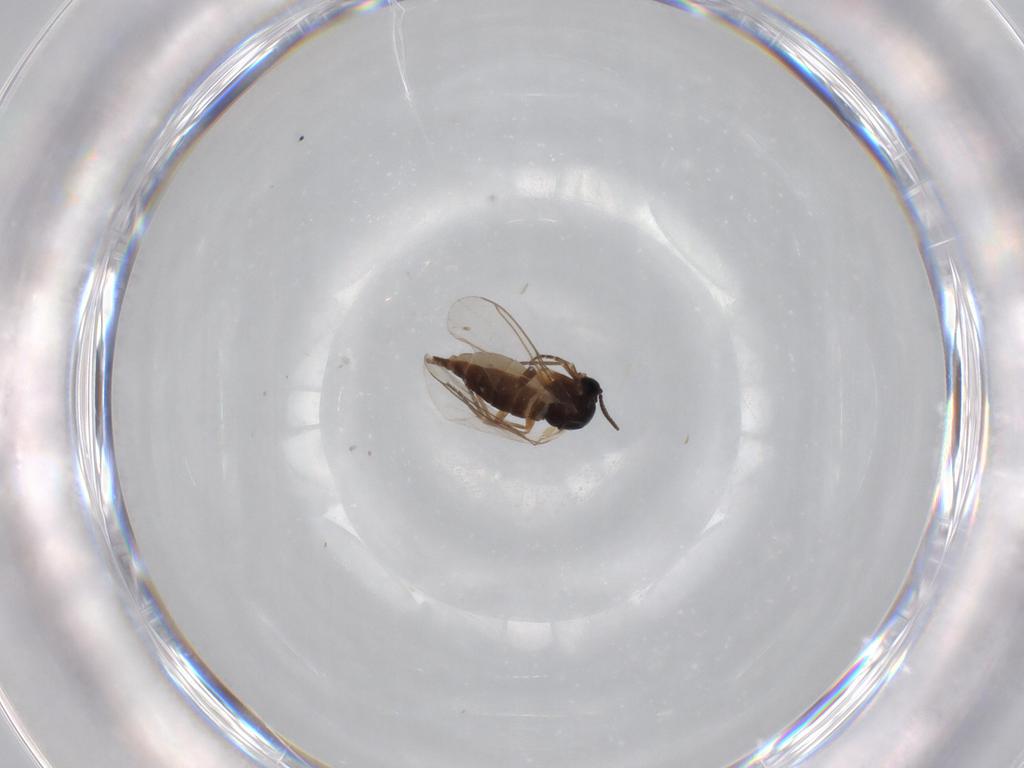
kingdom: Animalia
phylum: Arthropoda
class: Insecta
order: Diptera
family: Sciaridae
